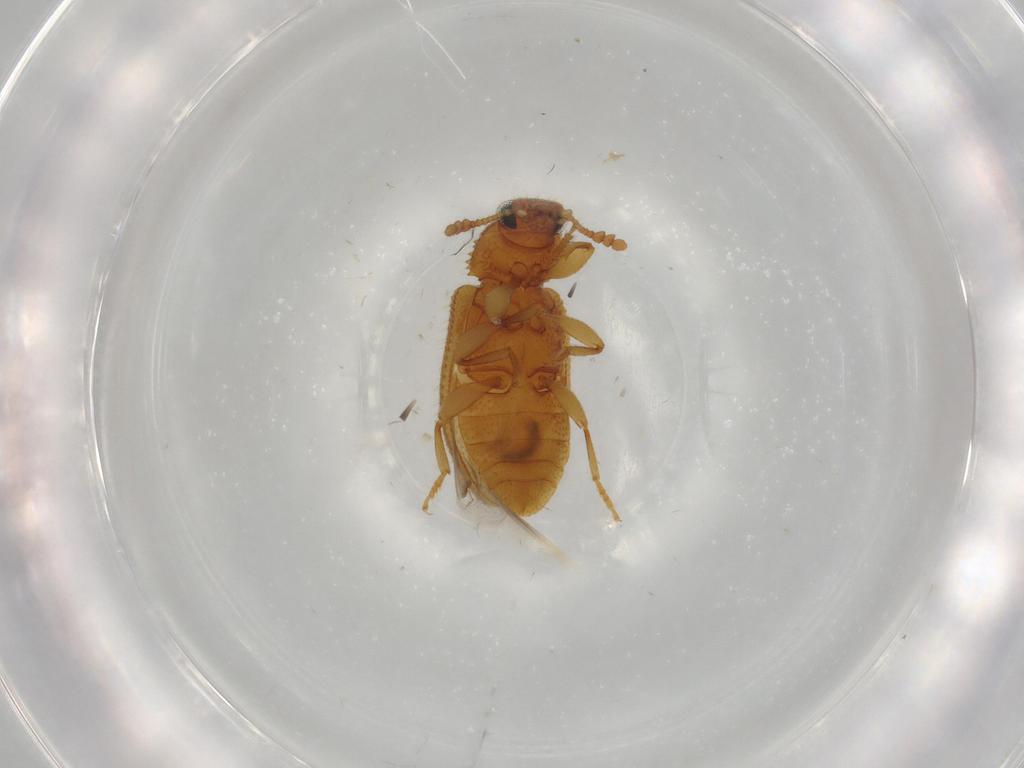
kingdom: Animalia
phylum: Arthropoda
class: Insecta
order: Coleoptera
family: Tenebrionidae
